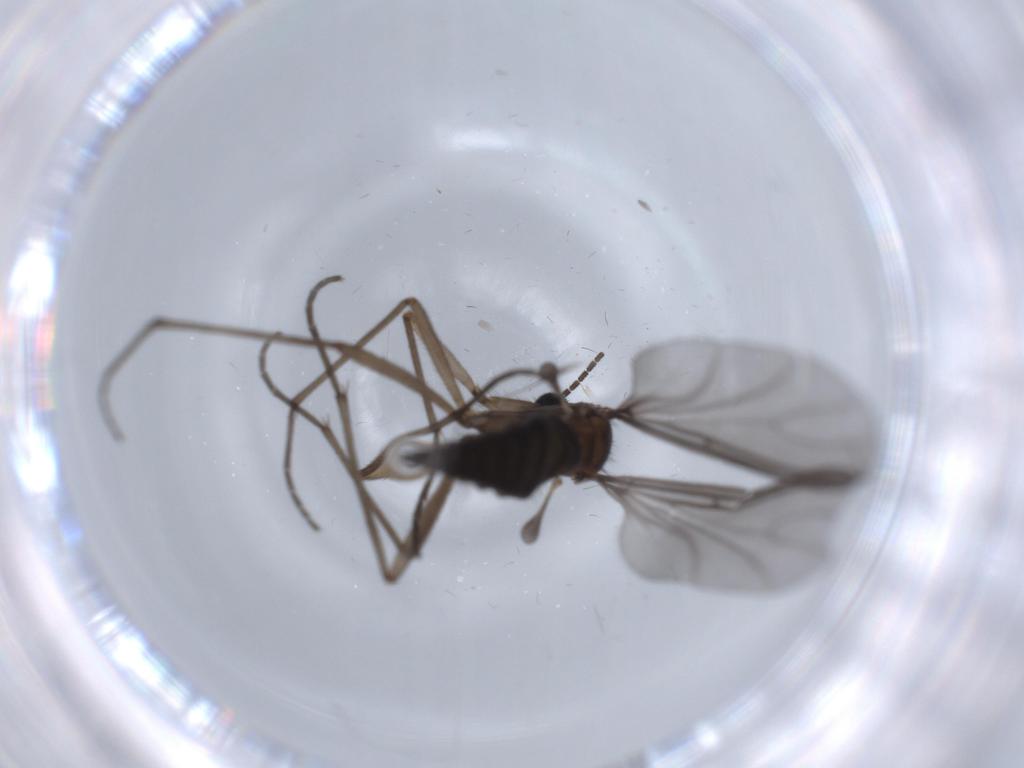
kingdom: Animalia
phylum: Arthropoda
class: Insecta
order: Diptera
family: Sciaridae
